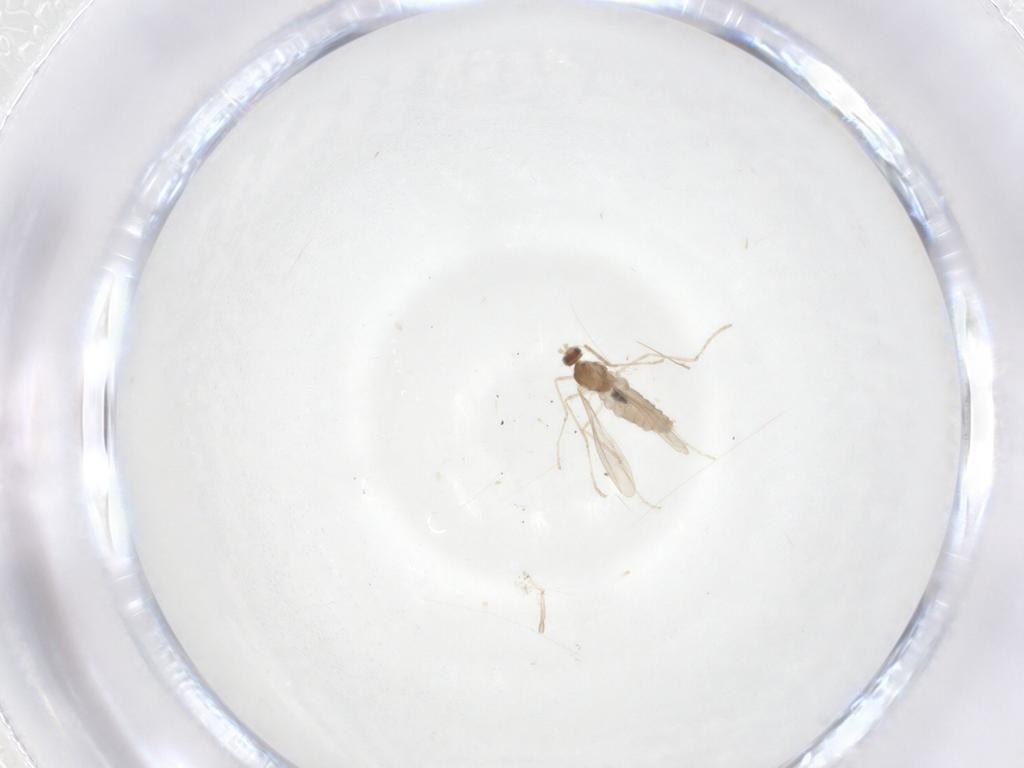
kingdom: Animalia
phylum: Arthropoda
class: Insecta
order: Diptera
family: Cecidomyiidae
